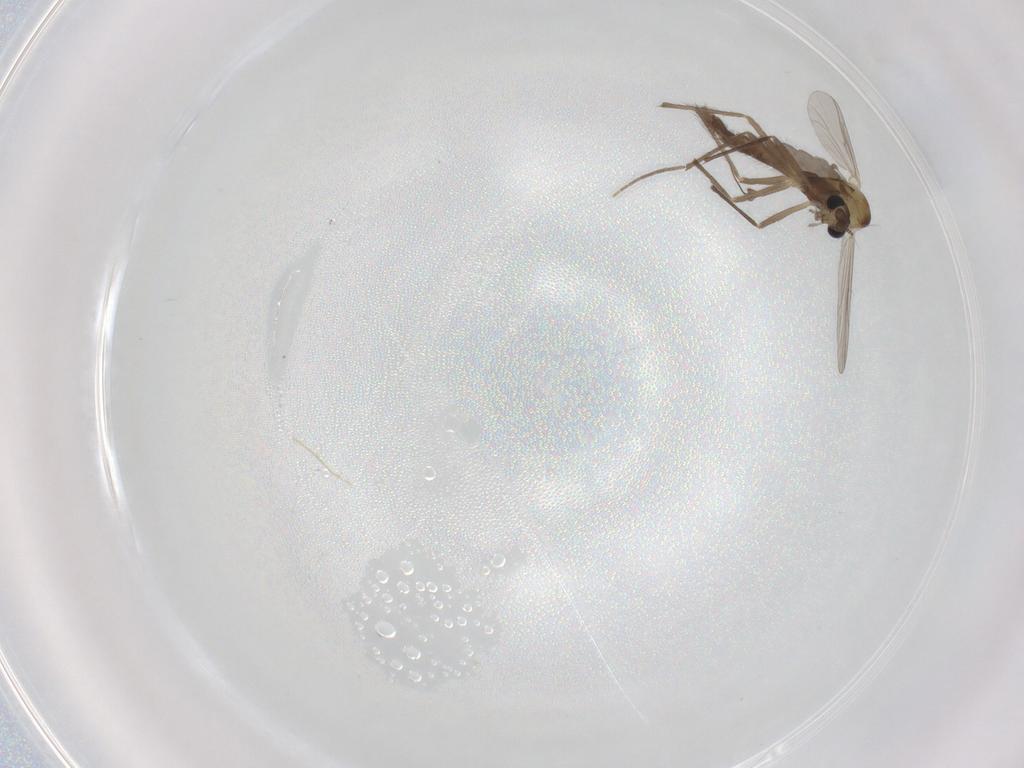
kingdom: Animalia
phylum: Arthropoda
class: Insecta
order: Diptera
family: Chironomidae
